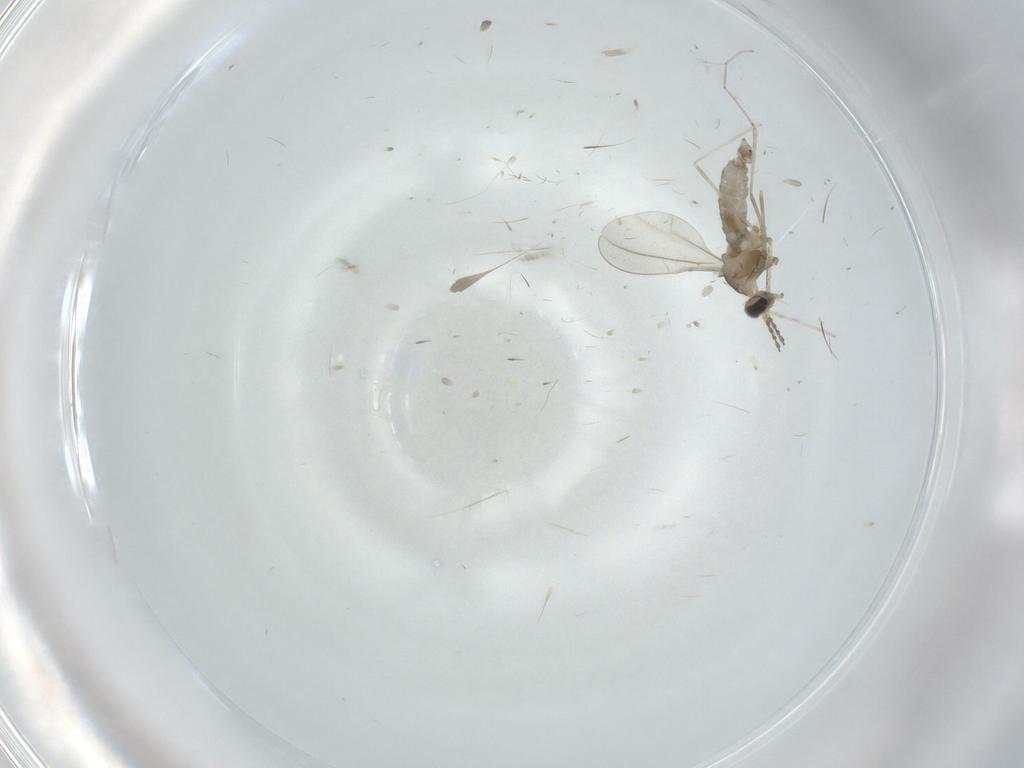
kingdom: Animalia
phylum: Arthropoda
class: Insecta
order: Diptera
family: Cecidomyiidae
